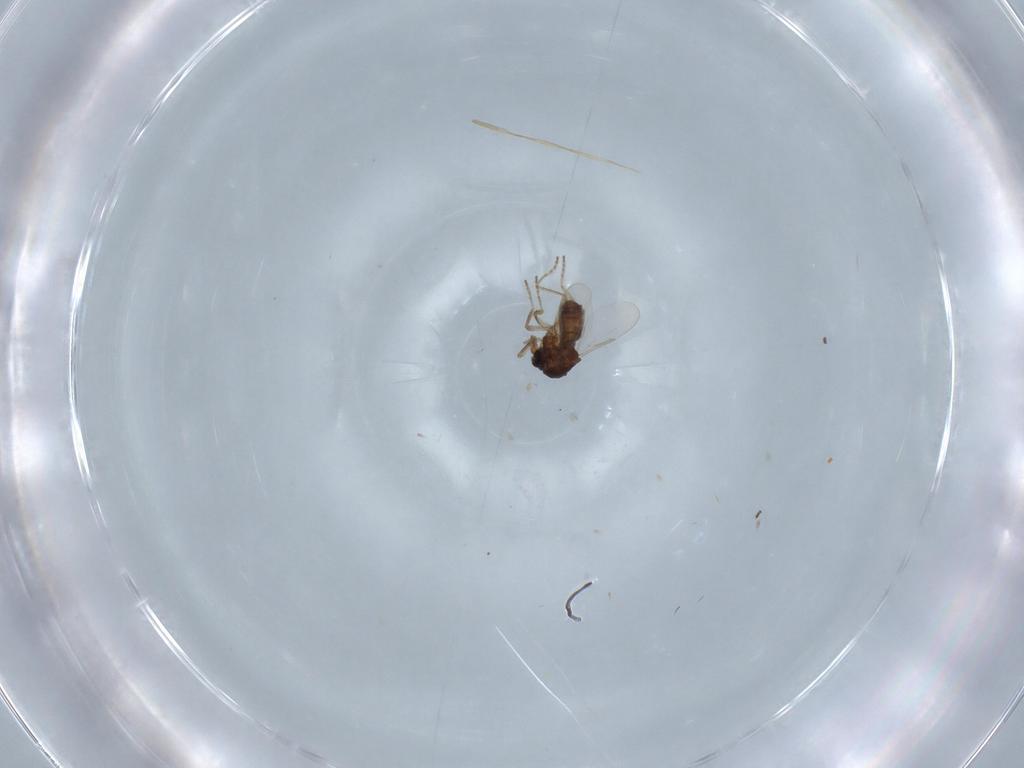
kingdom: Animalia
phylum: Arthropoda
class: Insecta
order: Diptera
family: Ceratopogonidae
